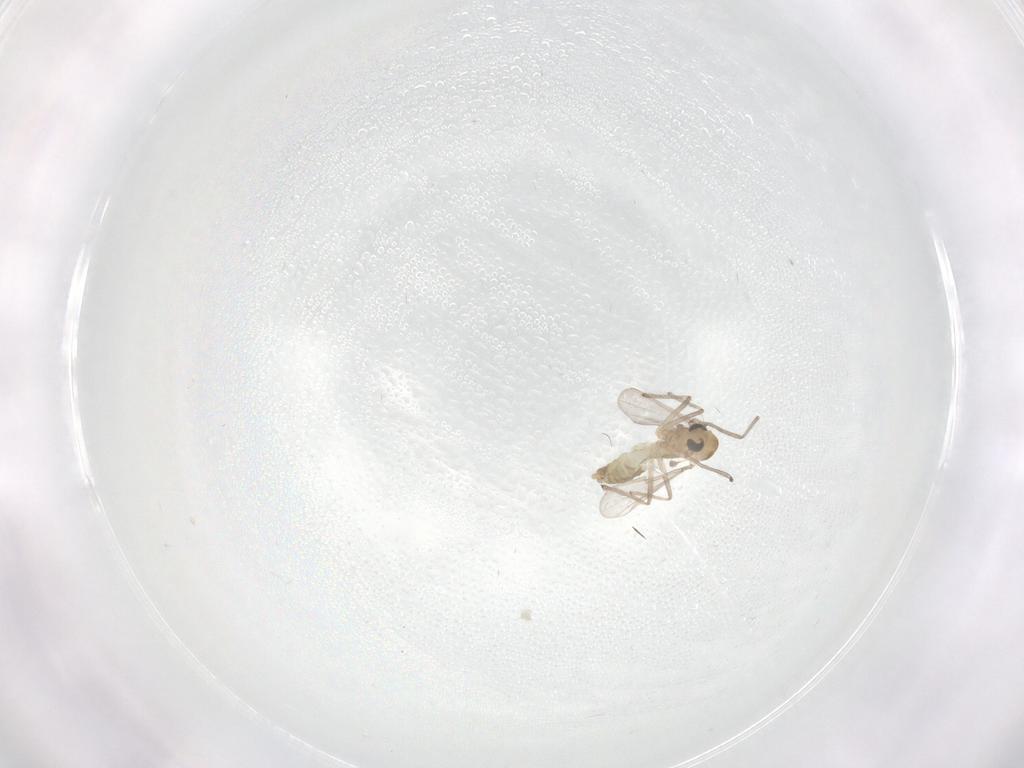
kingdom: Animalia
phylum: Arthropoda
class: Insecta
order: Diptera
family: Chironomidae
